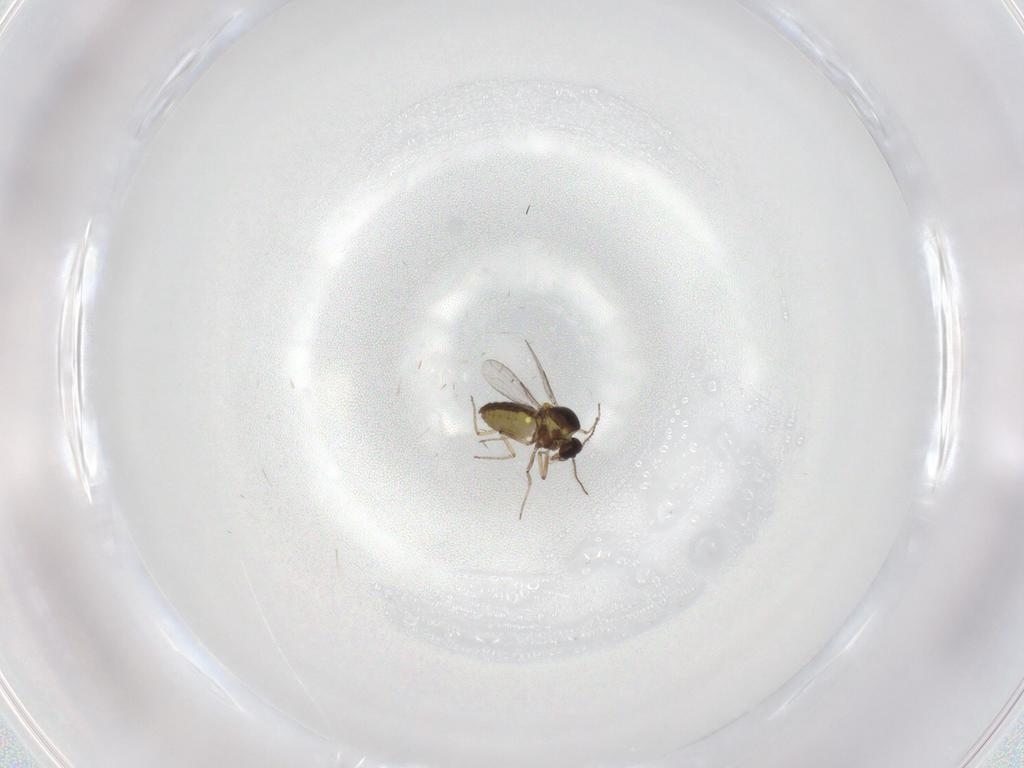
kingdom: Animalia
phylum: Arthropoda
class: Insecta
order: Diptera
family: Ceratopogonidae
